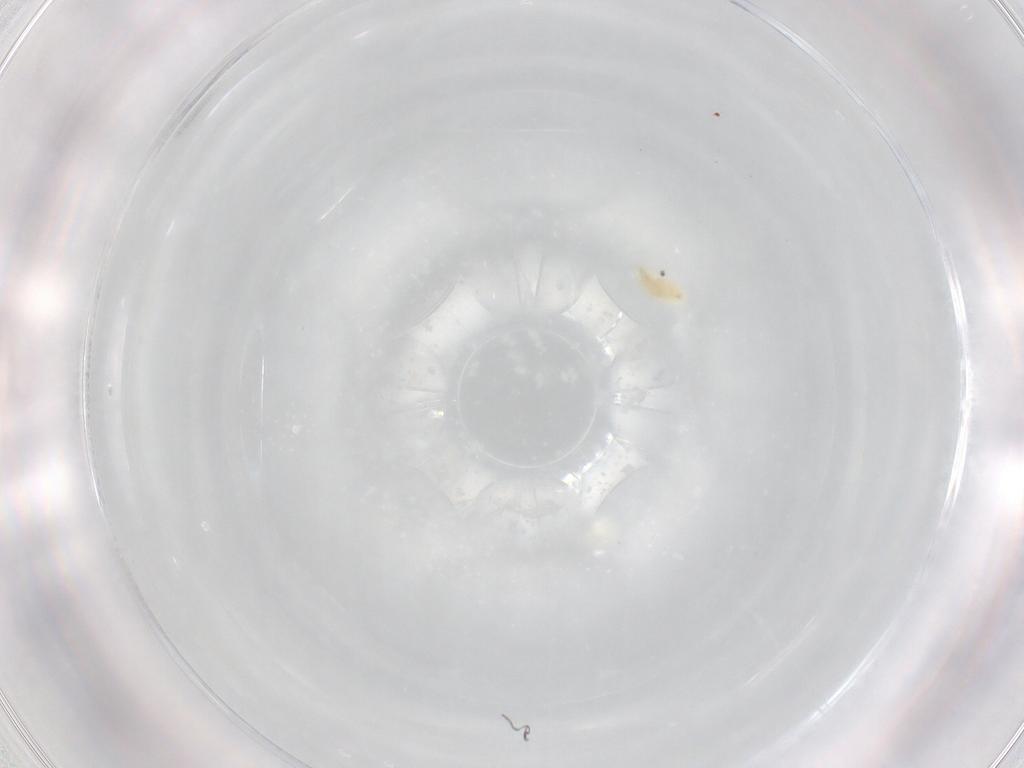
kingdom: Animalia
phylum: Arthropoda
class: Arachnida
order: Trombidiformes
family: Eupodidae
